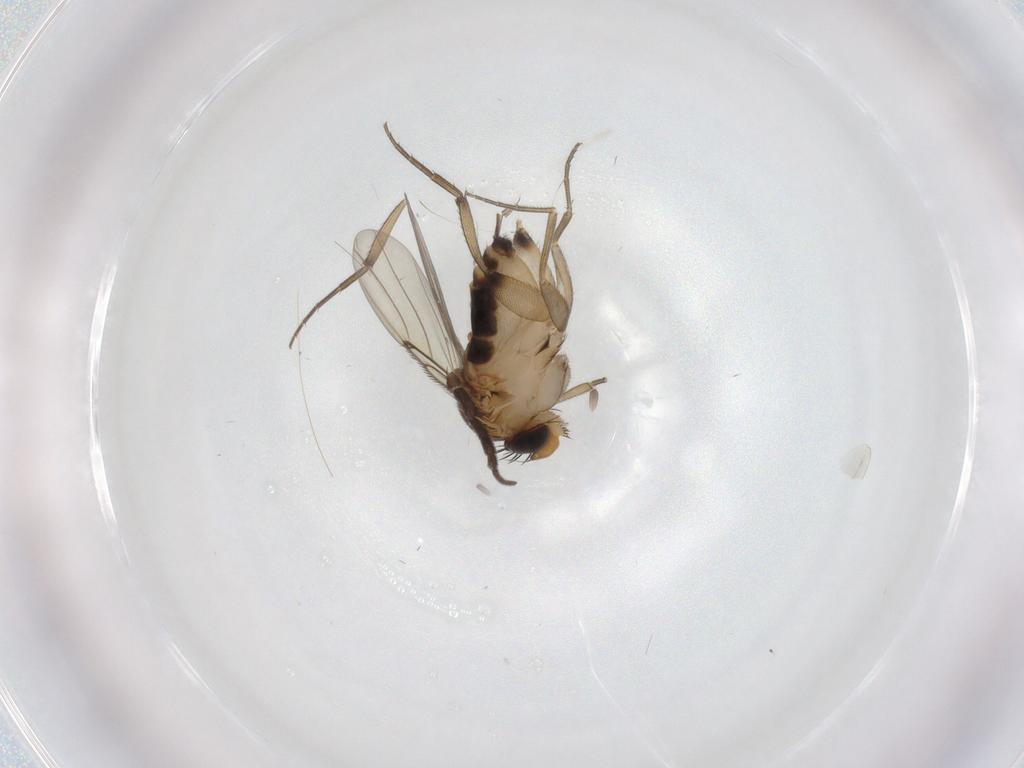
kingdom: Animalia
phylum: Arthropoda
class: Insecta
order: Diptera
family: Ceratopogonidae
